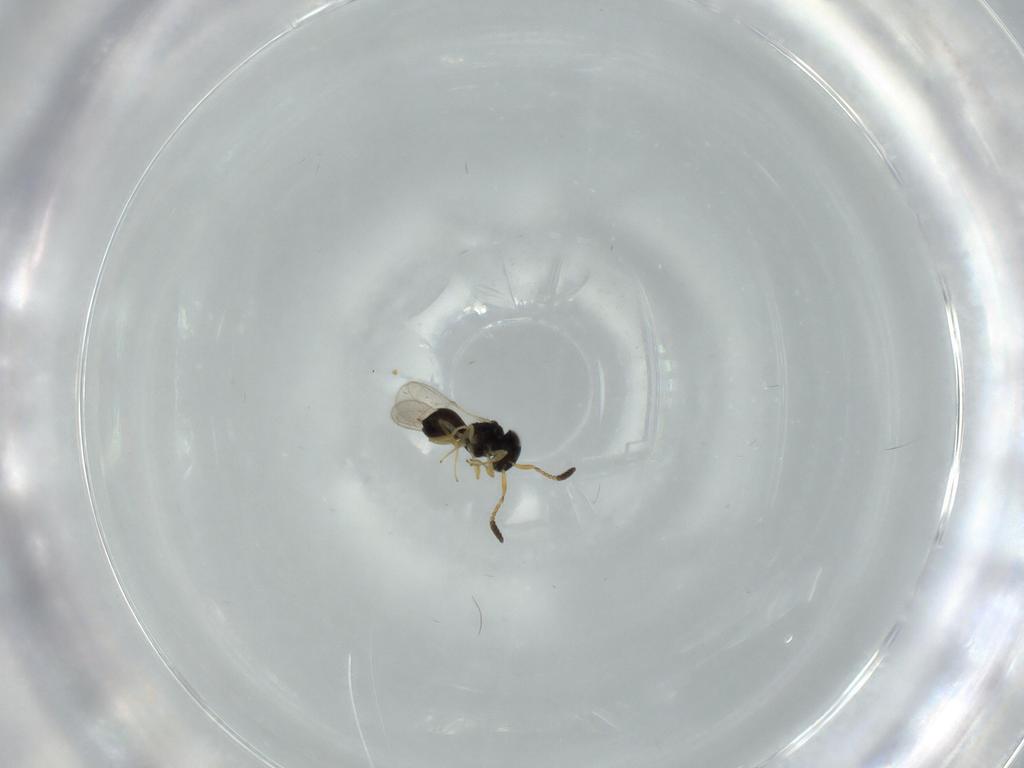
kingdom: Animalia
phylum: Arthropoda
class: Insecta
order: Hymenoptera
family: Scelionidae
